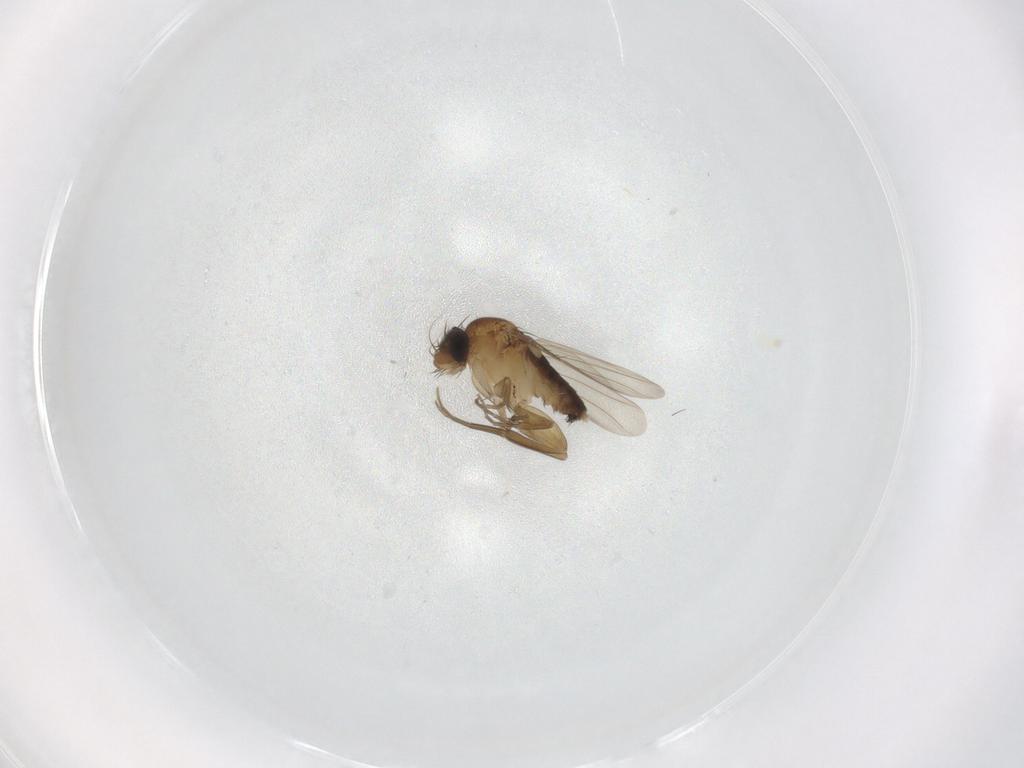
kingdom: Animalia
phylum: Arthropoda
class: Insecta
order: Diptera
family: Phoridae
